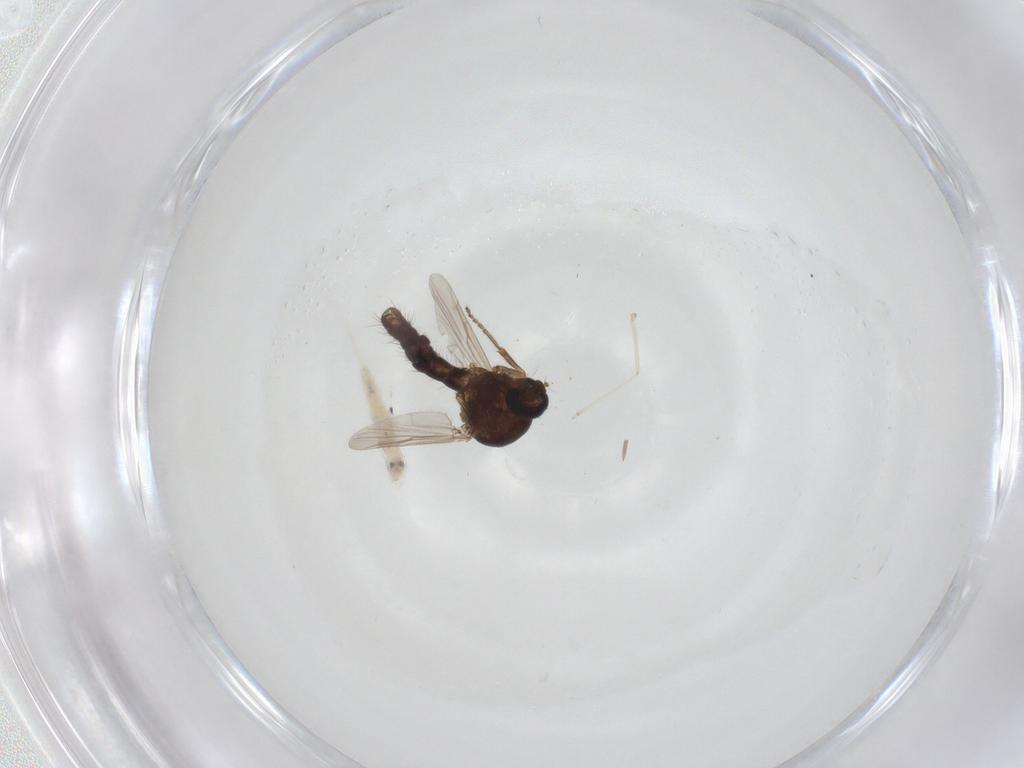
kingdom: Animalia
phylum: Arthropoda
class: Insecta
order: Diptera
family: Ceratopogonidae
